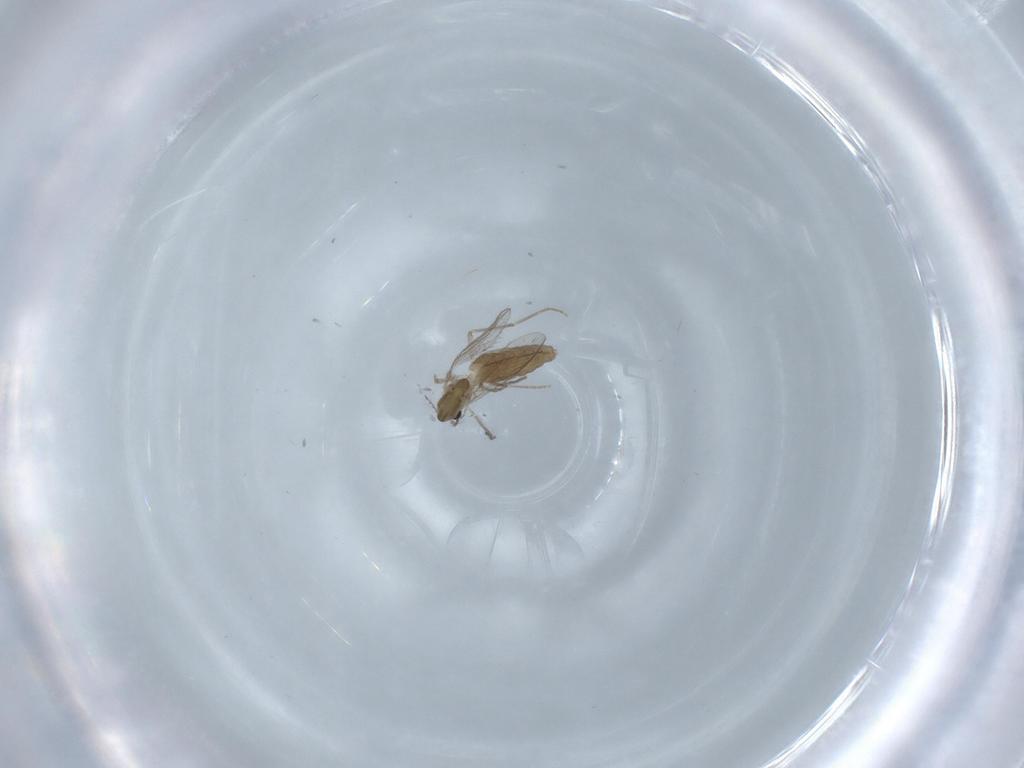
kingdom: Animalia
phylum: Arthropoda
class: Insecta
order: Diptera
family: Chironomidae
